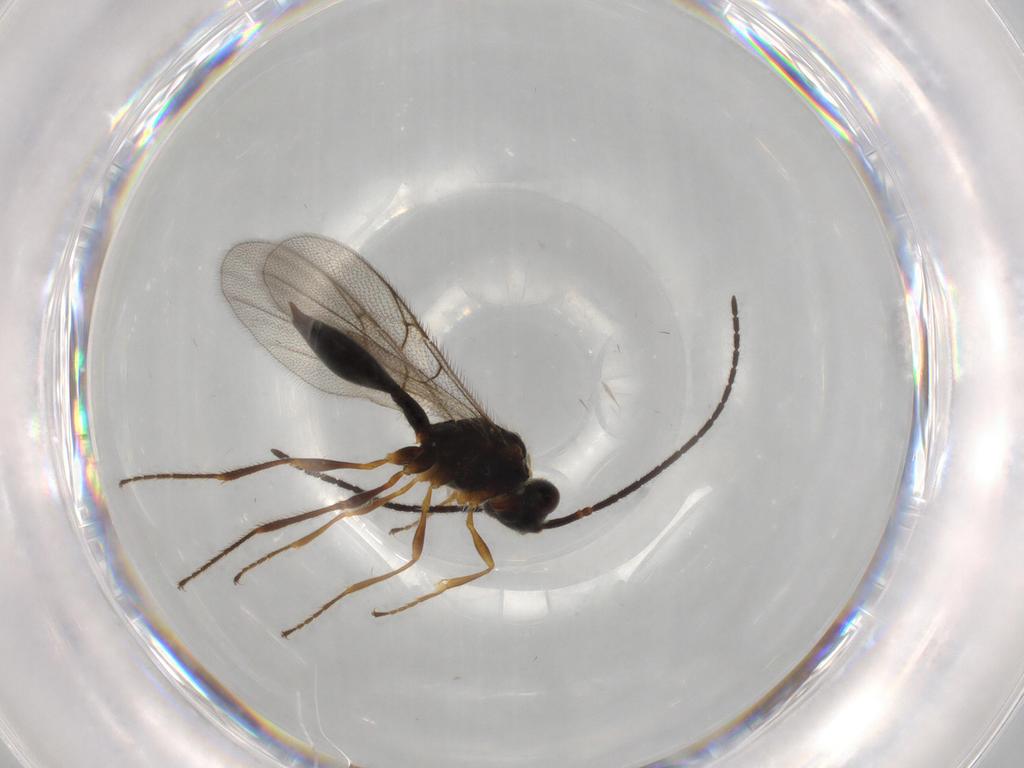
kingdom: Animalia
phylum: Arthropoda
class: Insecta
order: Hymenoptera
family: Diapriidae
